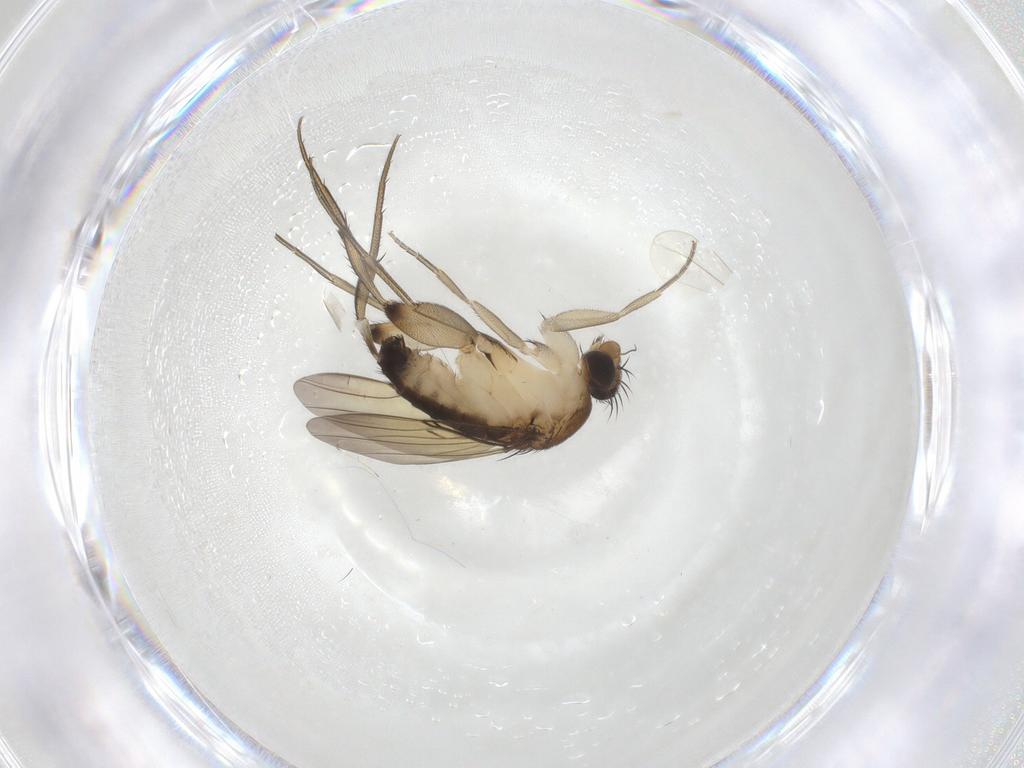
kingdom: Animalia
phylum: Arthropoda
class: Insecta
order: Diptera
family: Phoridae
